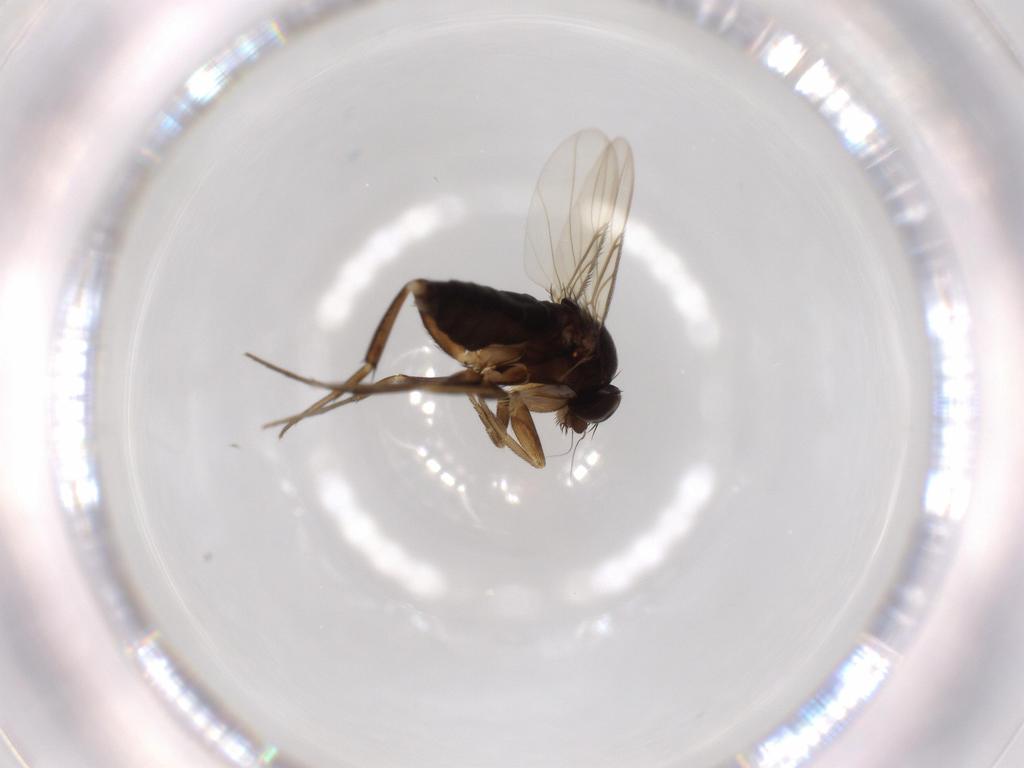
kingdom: Animalia
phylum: Arthropoda
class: Insecta
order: Diptera
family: Phoridae
